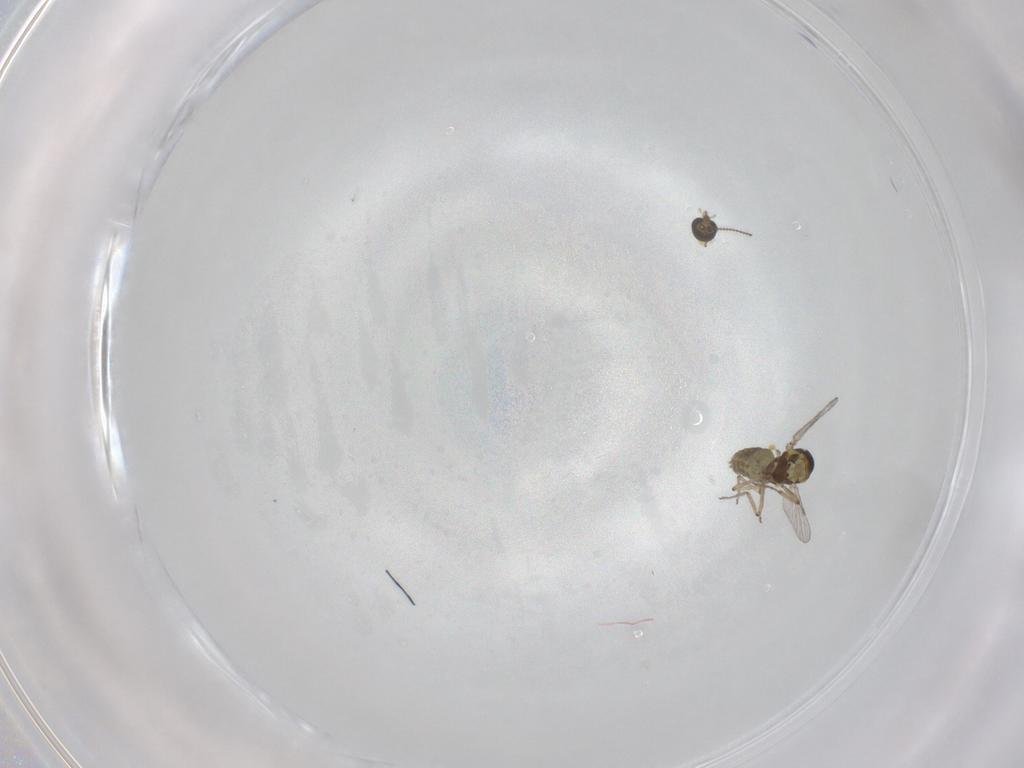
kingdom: Animalia
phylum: Arthropoda
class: Insecta
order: Diptera
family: Ceratopogonidae
